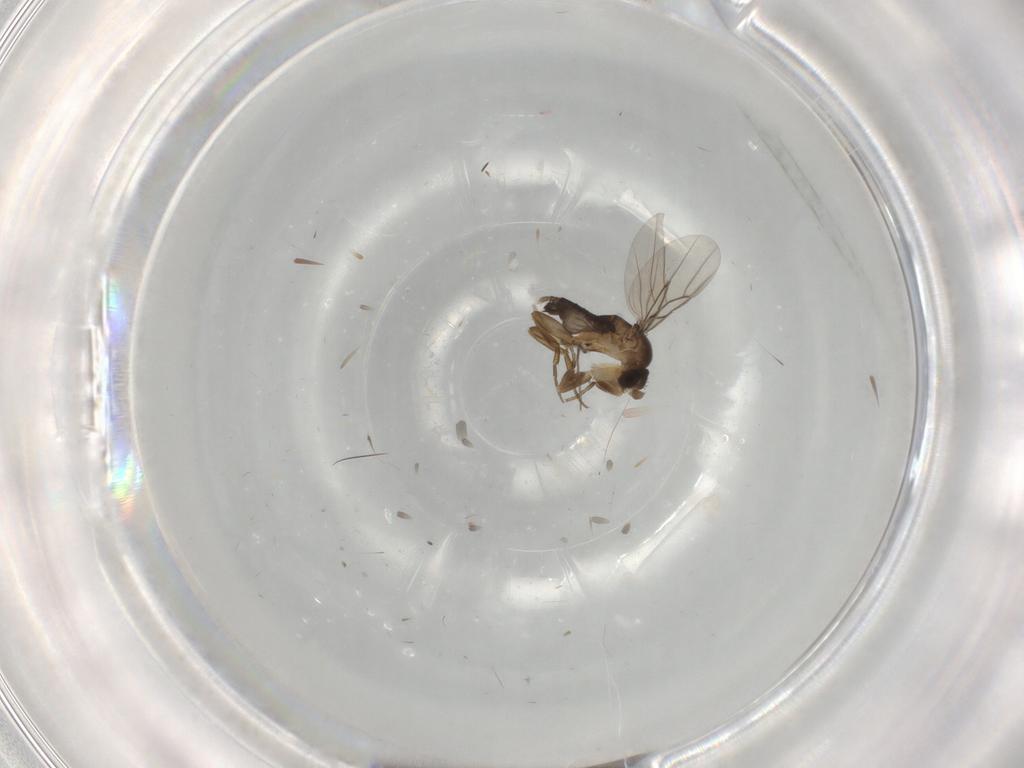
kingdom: Animalia
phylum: Arthropoda
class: Insecta
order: Diptera
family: Phoridae
